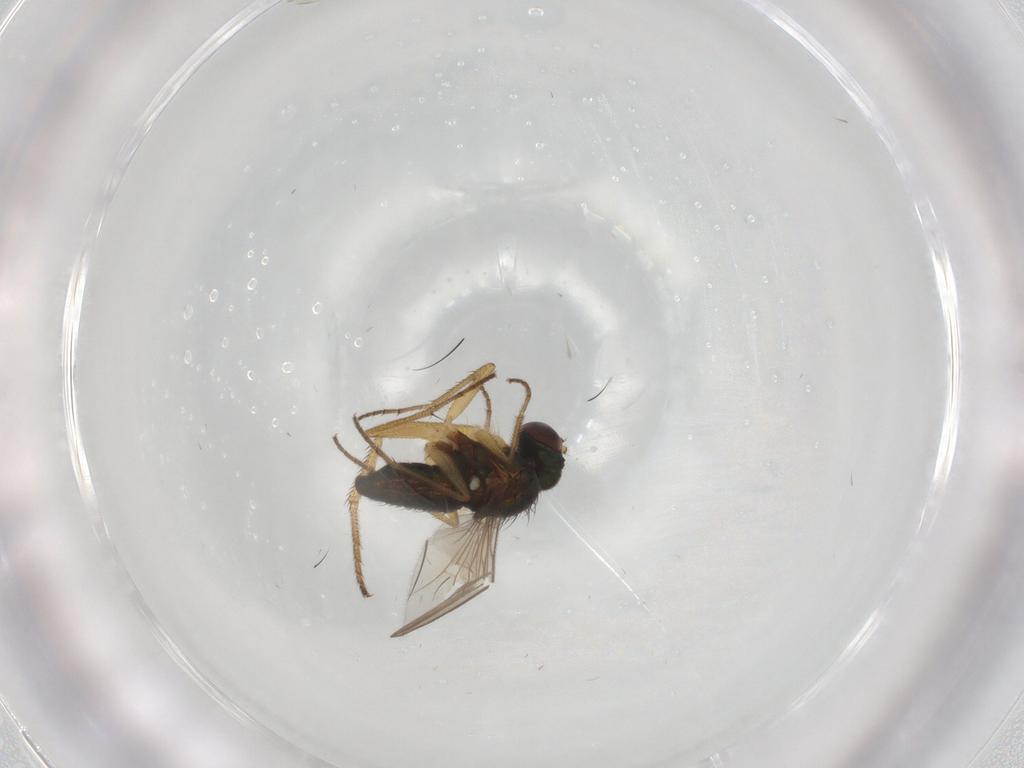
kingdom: Animalia
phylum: Arthropoda
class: Insecta
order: Diptera
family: Dolichopodidae
